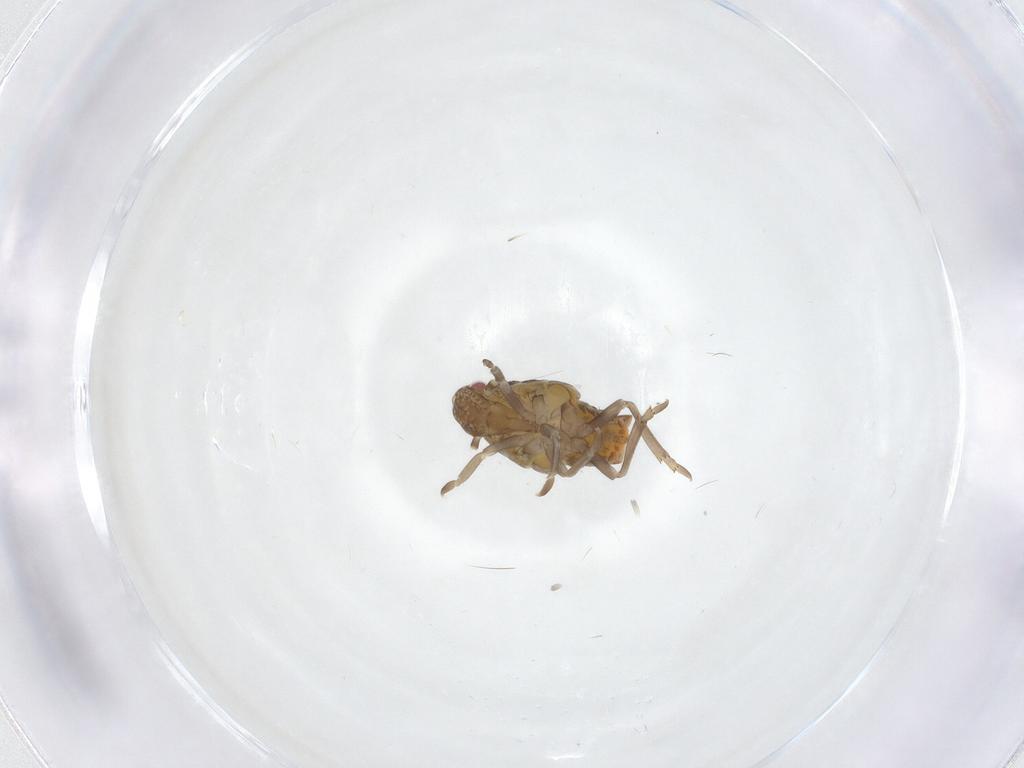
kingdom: Animalia
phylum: Arthropoda
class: Insecta
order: Hemiptera
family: Flatidae
